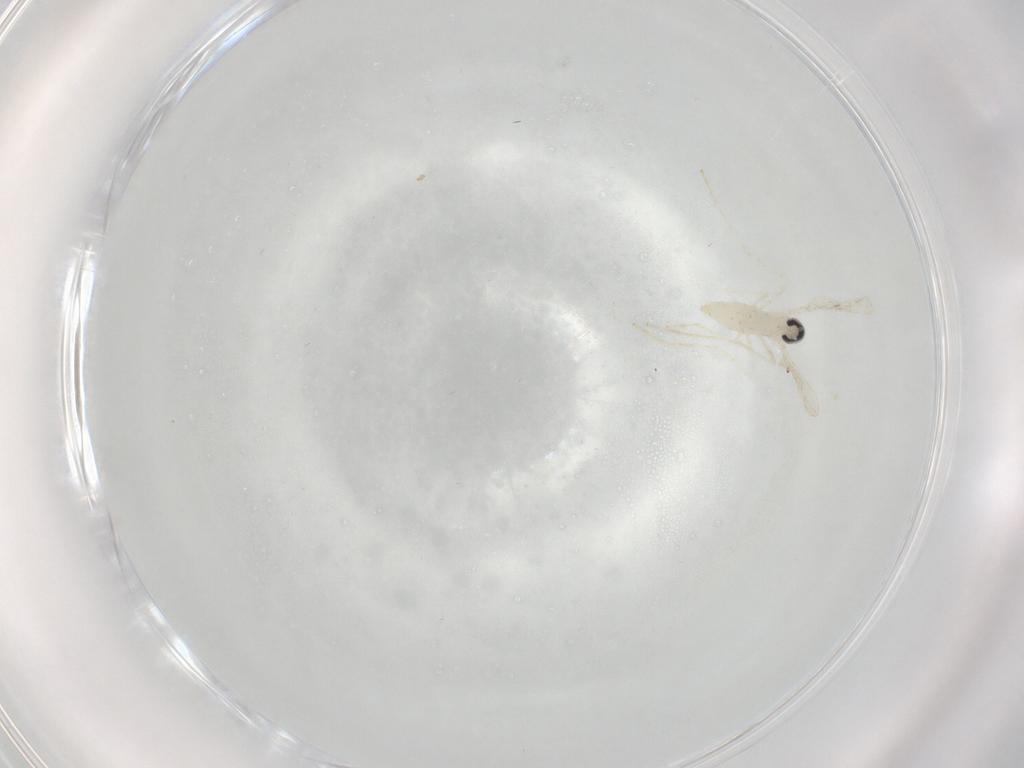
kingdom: Animalia
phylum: Arthropoda
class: Insecta
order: Diptera
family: Cecidomyiidae
